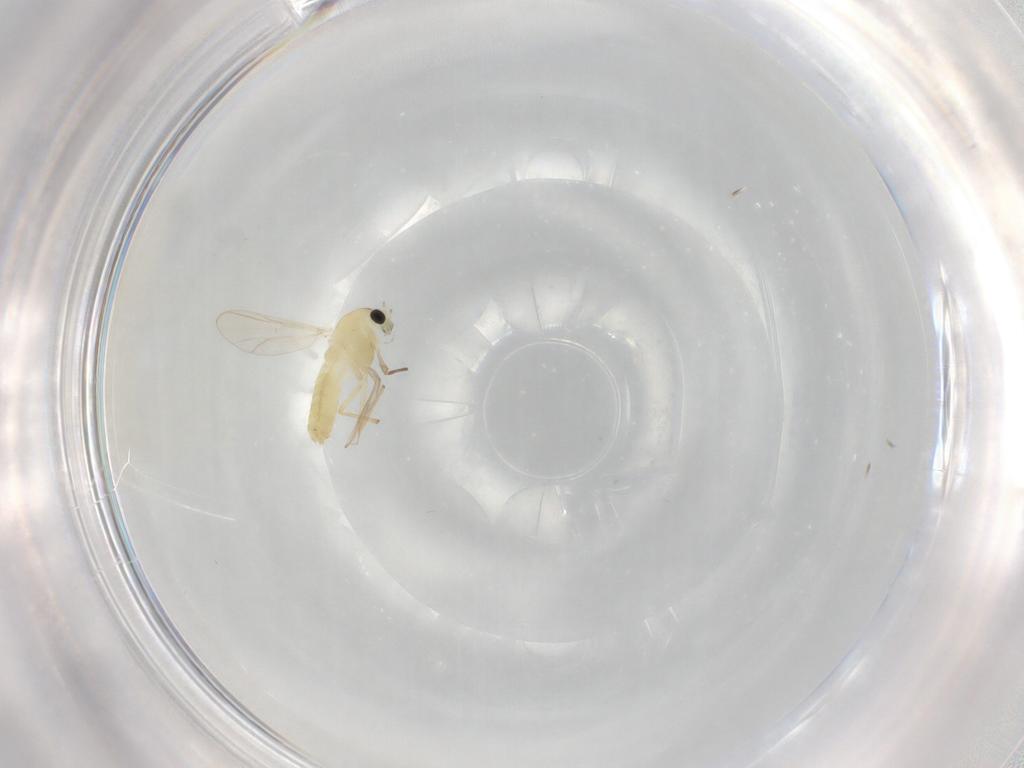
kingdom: Animalia
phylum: Arthropoda
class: Insecta
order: Diptera
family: Chironomidae
